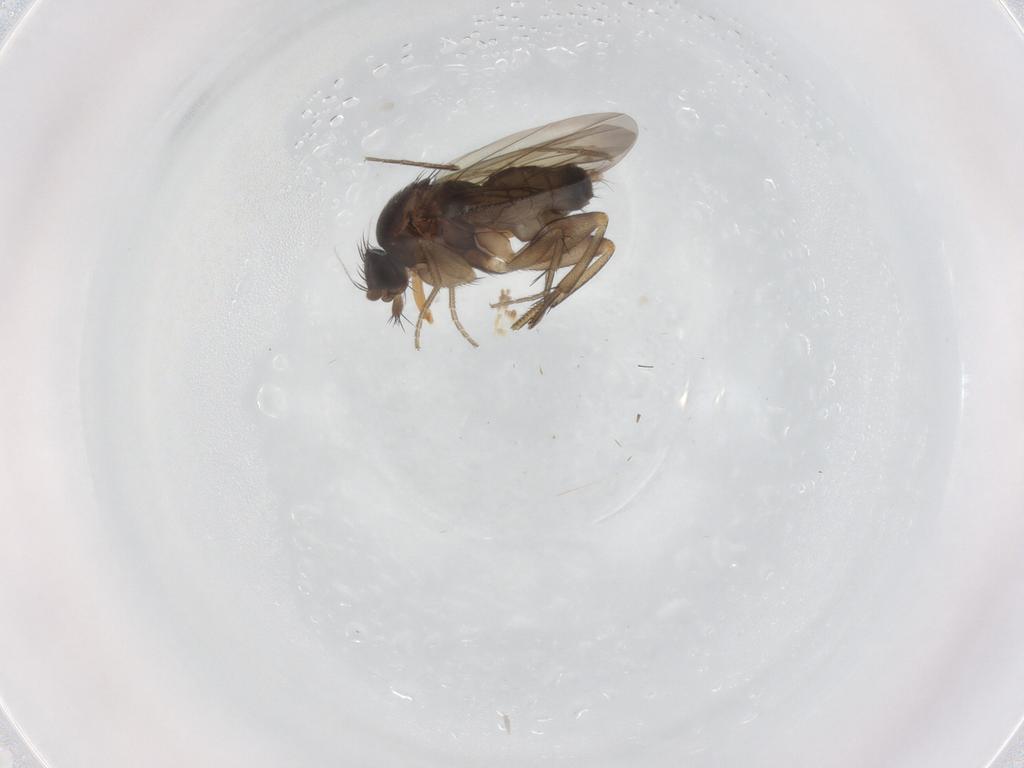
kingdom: Animalia
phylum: Arthropoda
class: Insecta
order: Diptera
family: Phoridae
